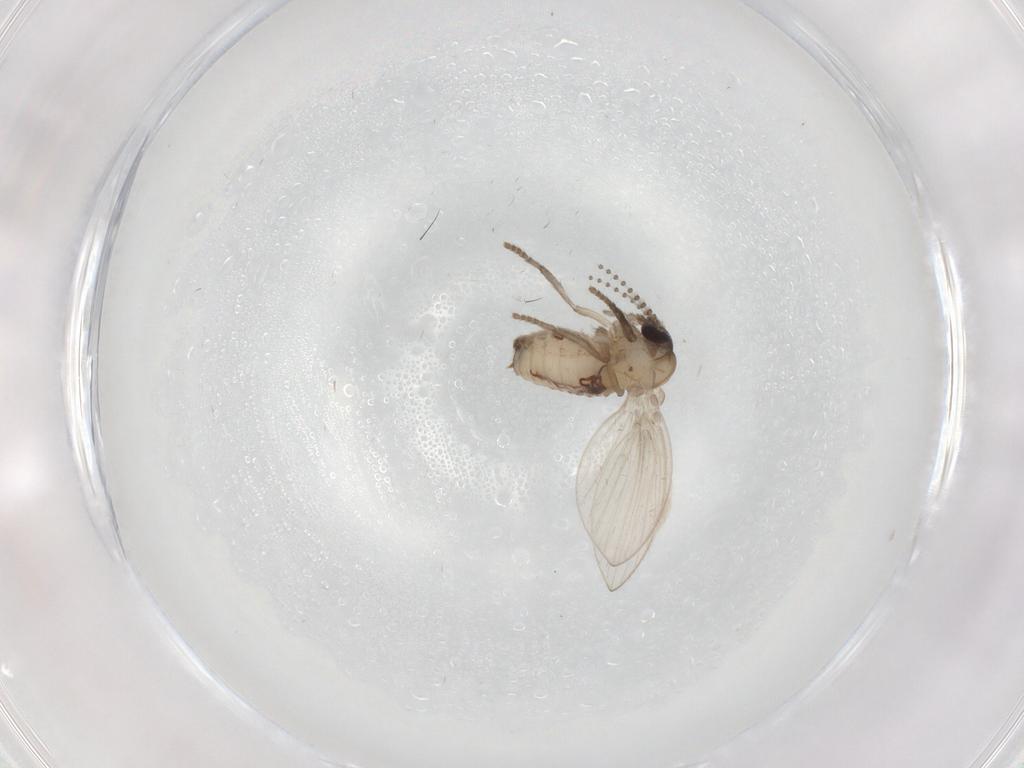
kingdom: Animalia
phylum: Arthropoda
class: Insecta
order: Diptera
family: Psychodidae
